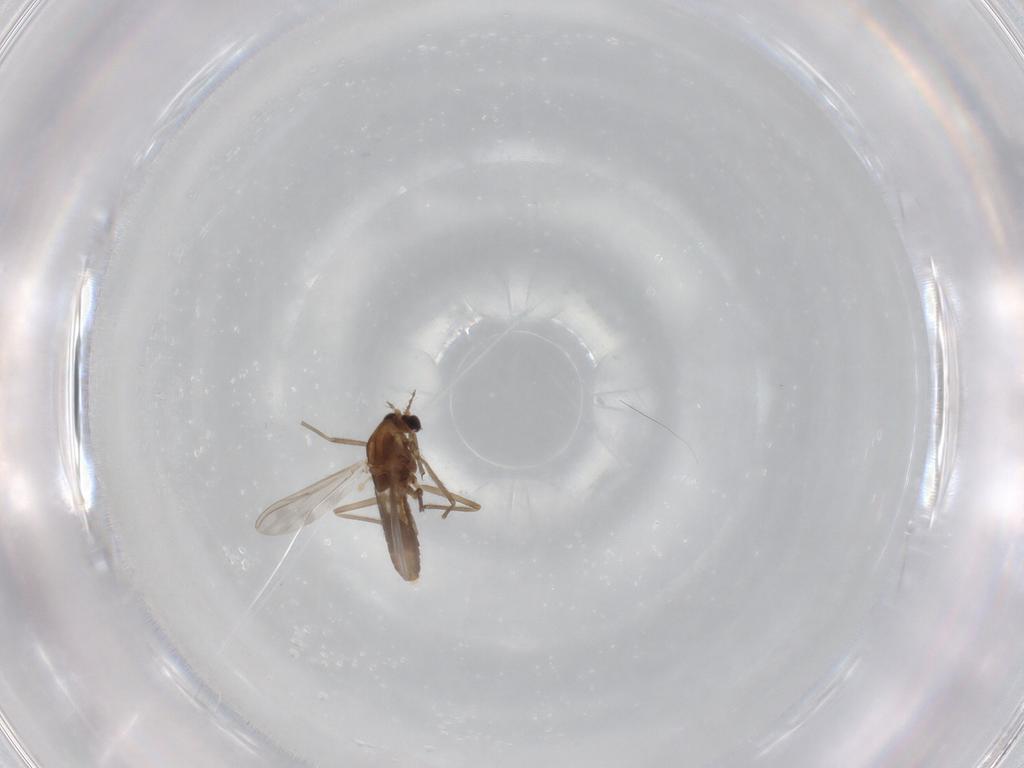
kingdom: Animalia
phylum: Arthropoda
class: Insecta
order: Diptera
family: Chironomidae
